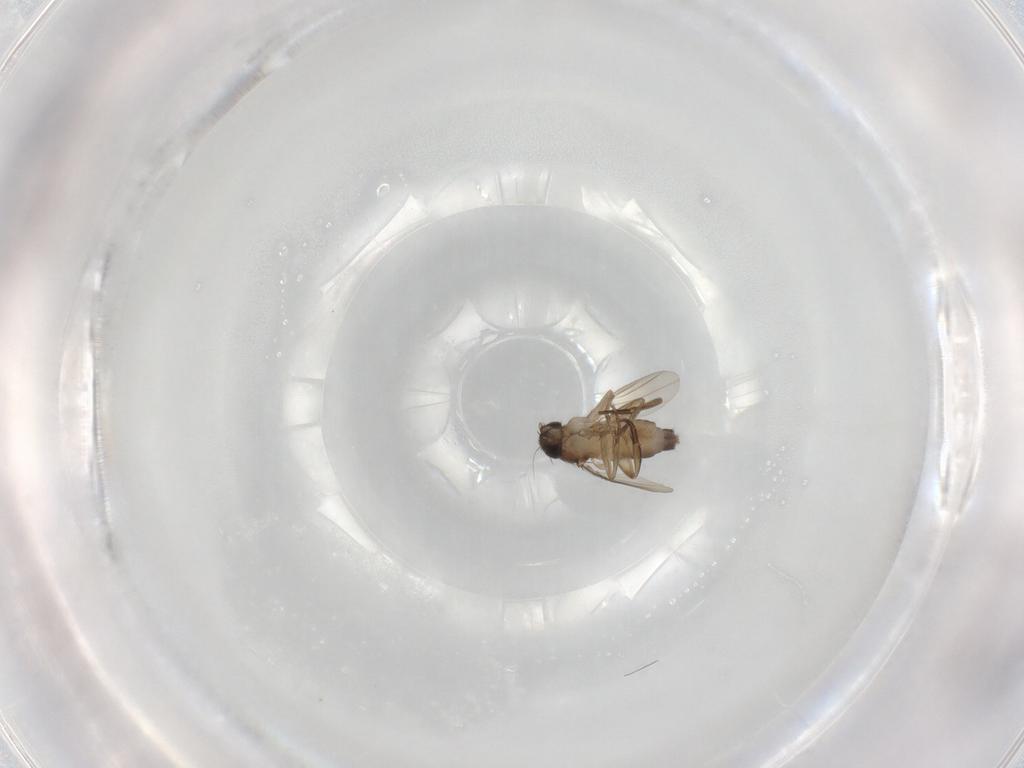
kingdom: Animalia
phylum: Arthropoda
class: Insecta
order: Diptera
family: Phoridae
